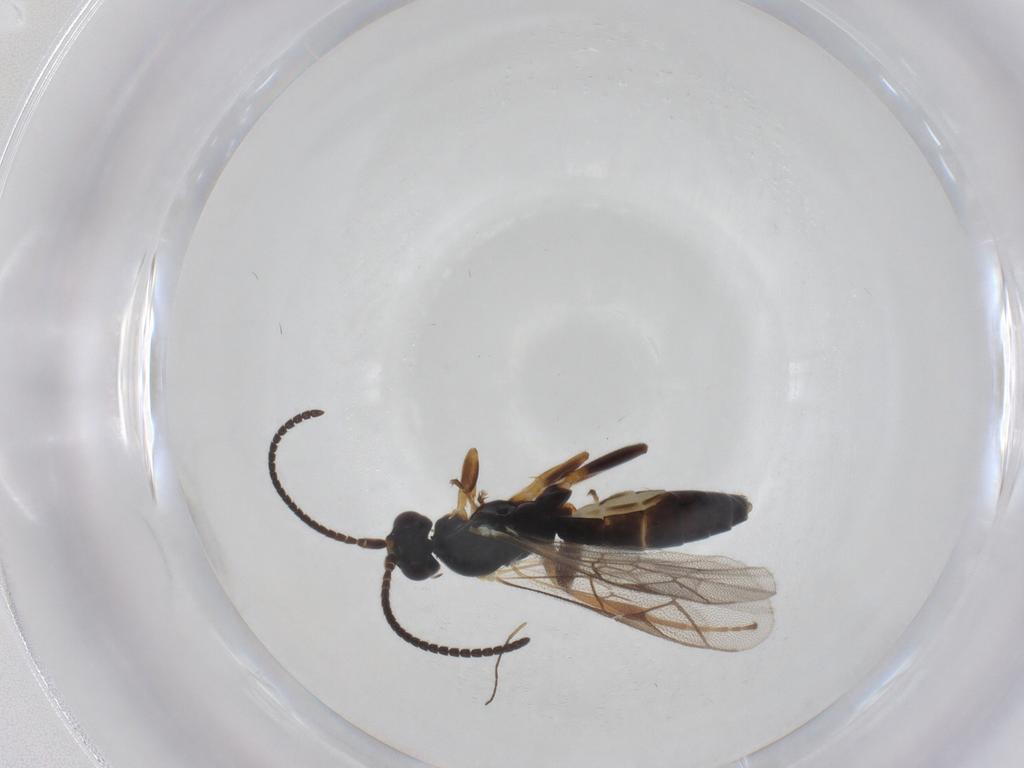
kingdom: Animalia
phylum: Arthropoda
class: Insecta
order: Hymenoptera
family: Ichneumonidae
